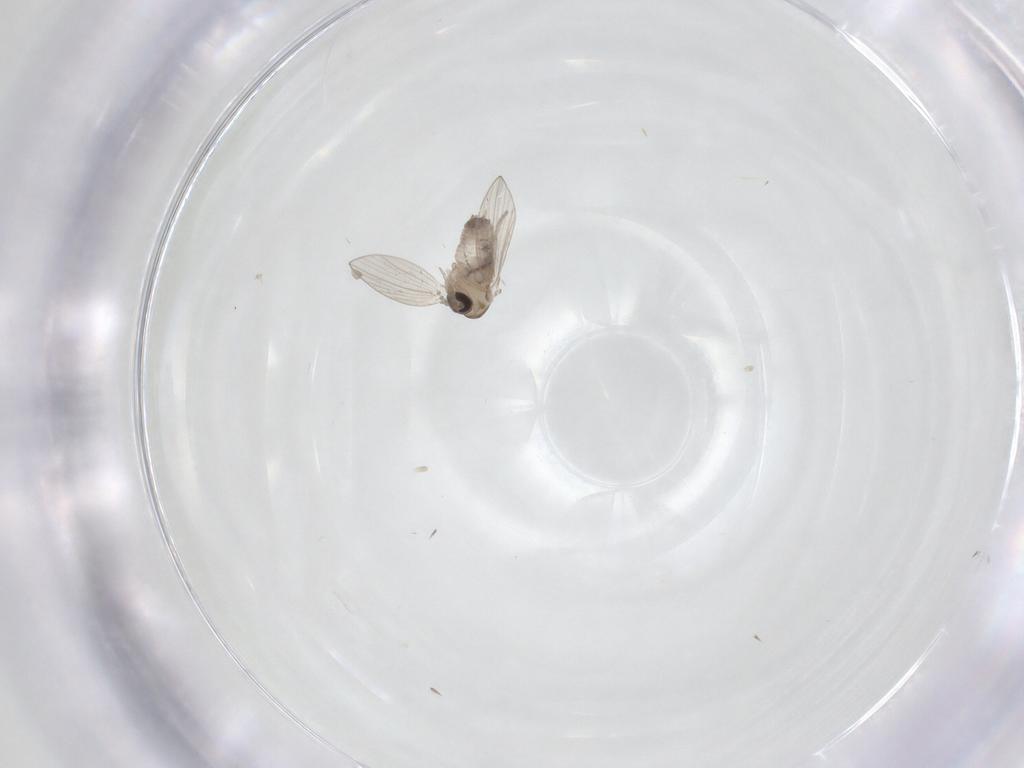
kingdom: Animalia
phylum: Arthropoda
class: Insecta
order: Diptera
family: Psychodidae
